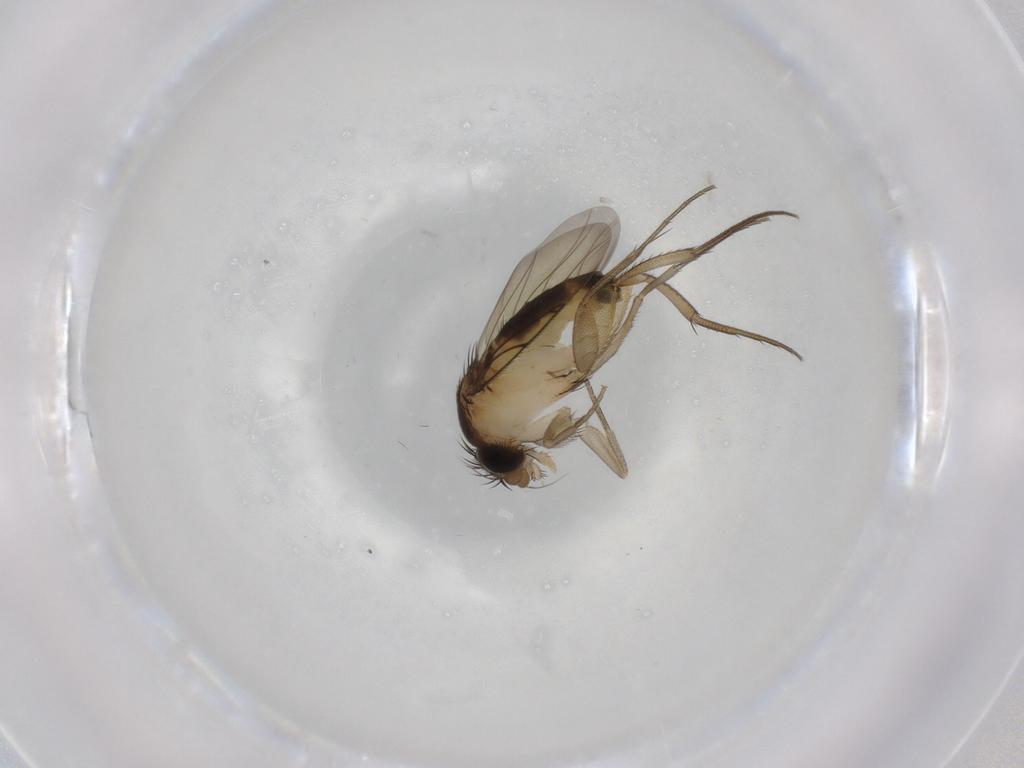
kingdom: Animalia
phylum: Arthropoda
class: Insecta
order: Diptera
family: Phoridae
